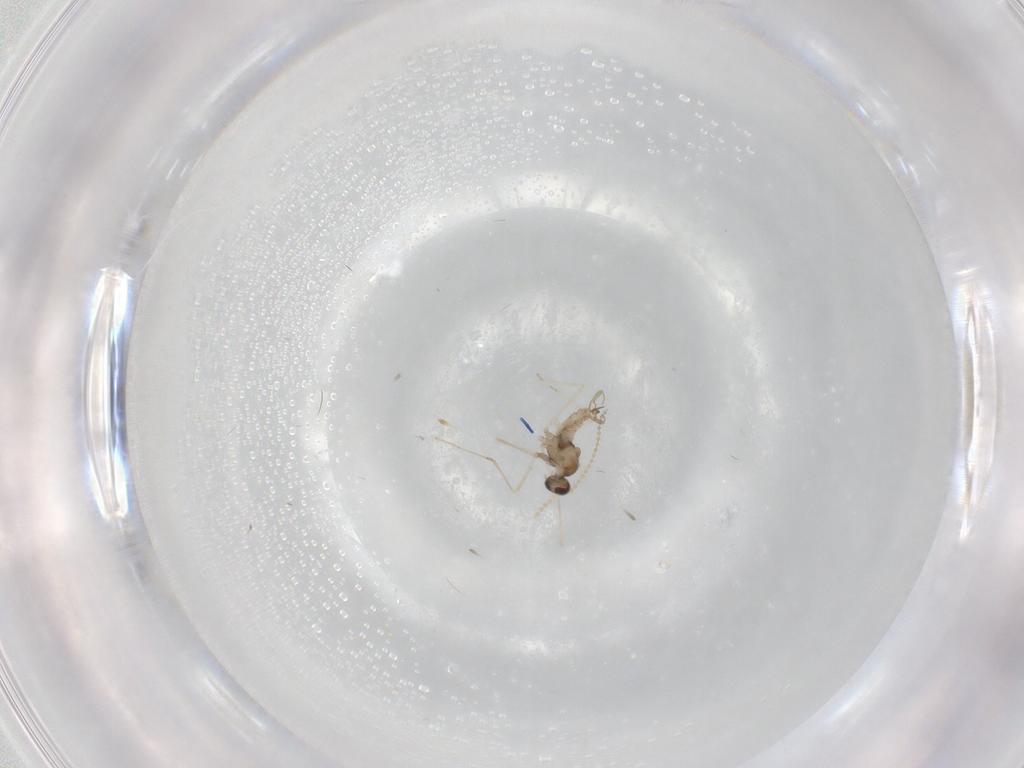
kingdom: Animalia
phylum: Arthropoda
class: Insecta
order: Diptera
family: Cecidomyiidae
